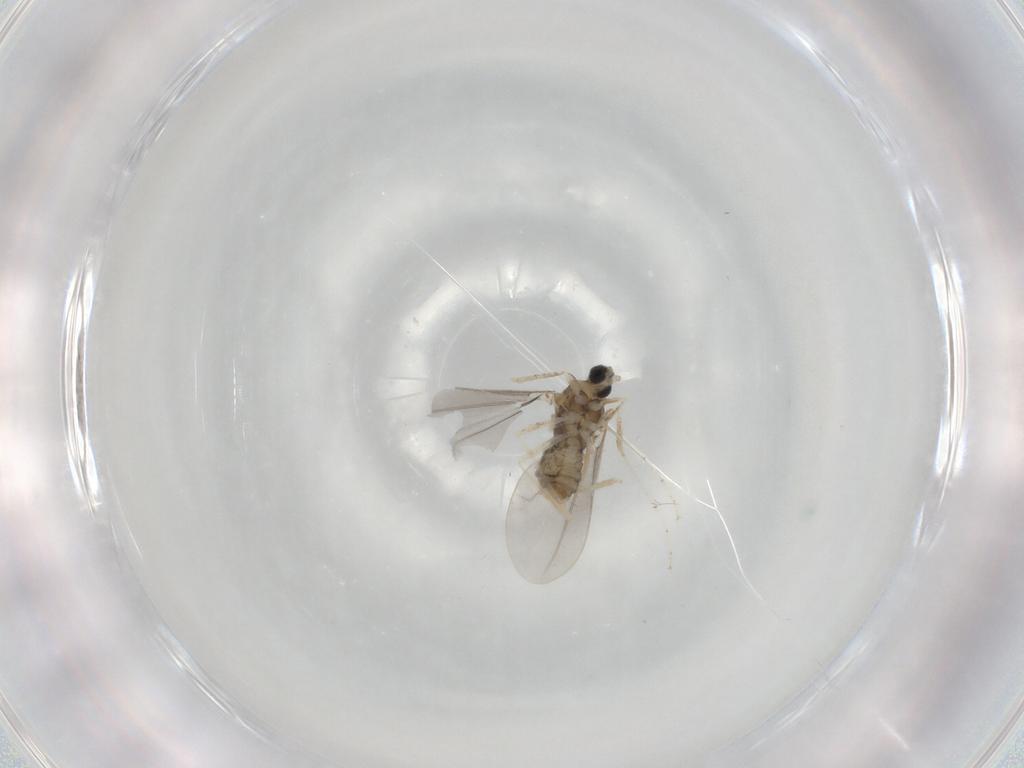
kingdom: Animalia
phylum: Arthropoda
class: Insecta
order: Diptera
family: Cecidomyiidae
